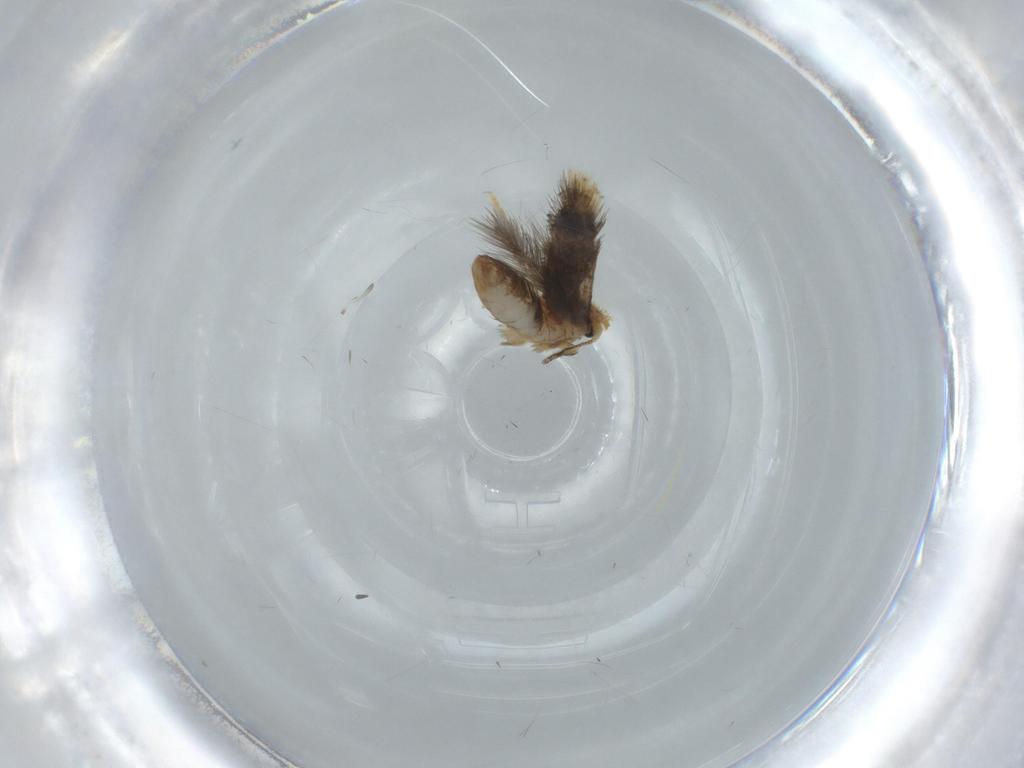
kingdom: Animalia
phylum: Arthropoda
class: Insecta
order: Lepidoptera
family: Nepticulidae
